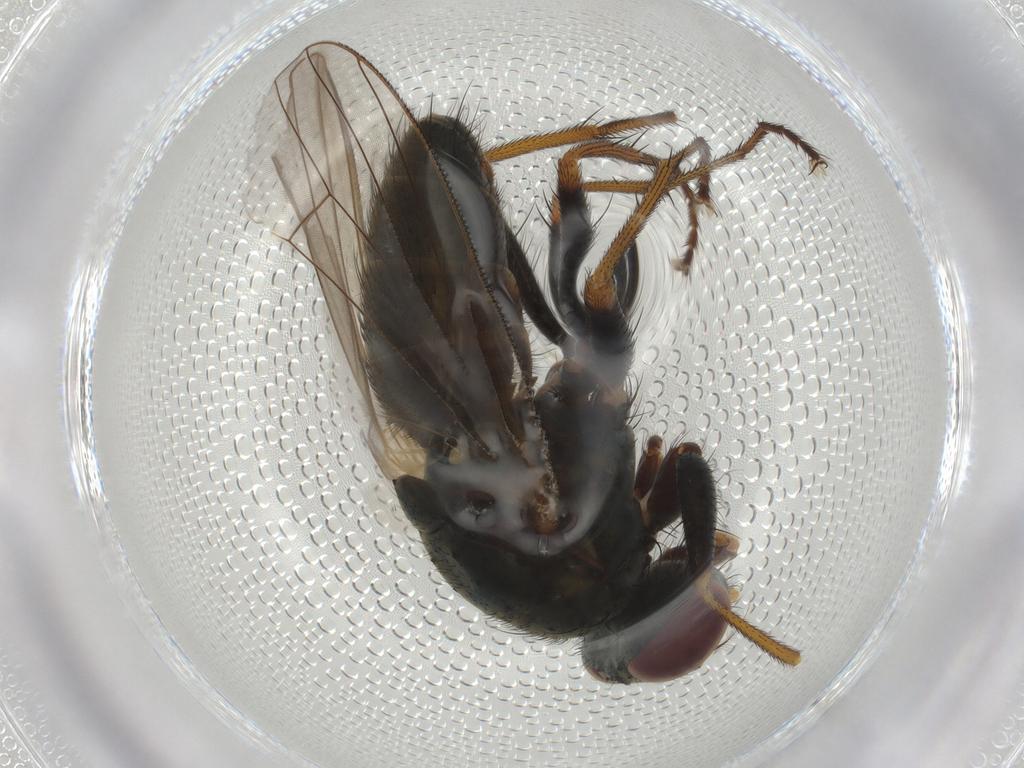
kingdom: Animalia
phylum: Arthropoda
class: Insecta
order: Diptera
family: Muscidae
